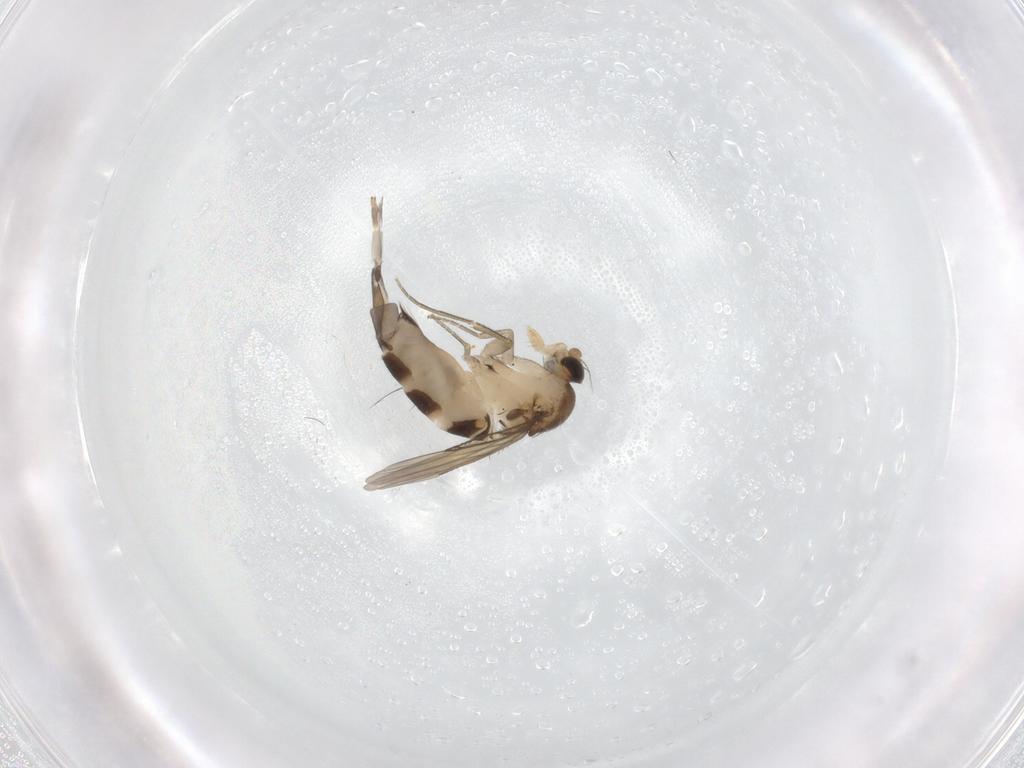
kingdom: Animalia
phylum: Arthropoda
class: Insecta
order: Diptera
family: Phoridae
